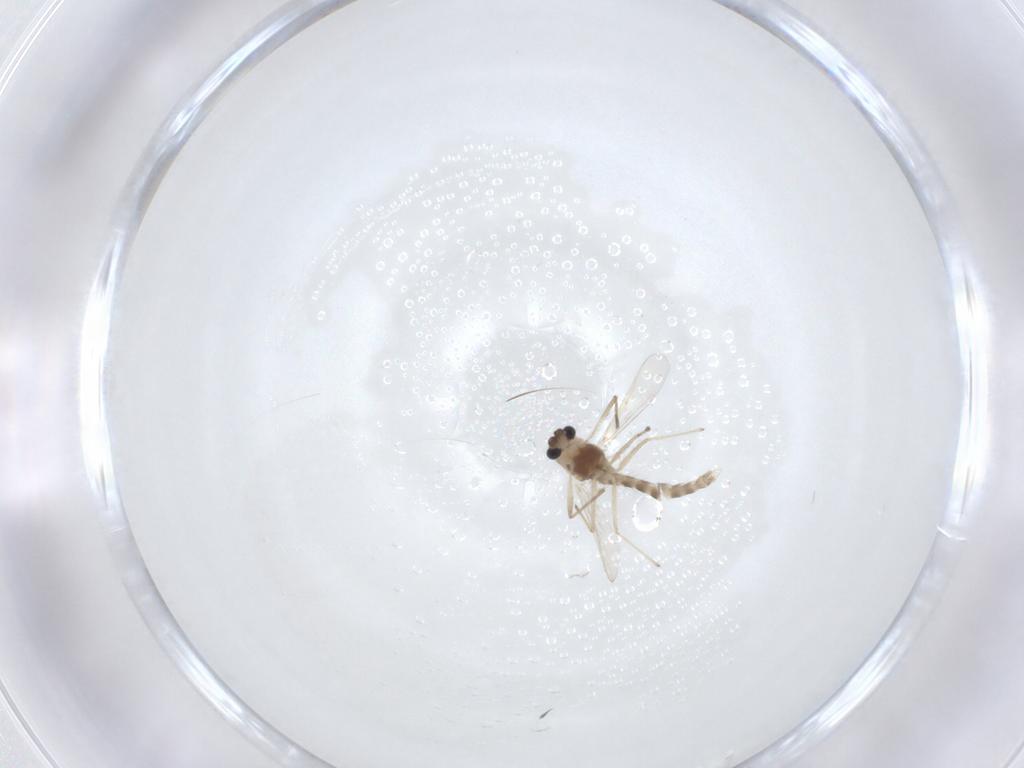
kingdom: Animalia
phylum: Arthropoda
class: Insecta
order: Diptera
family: Chironomidae
